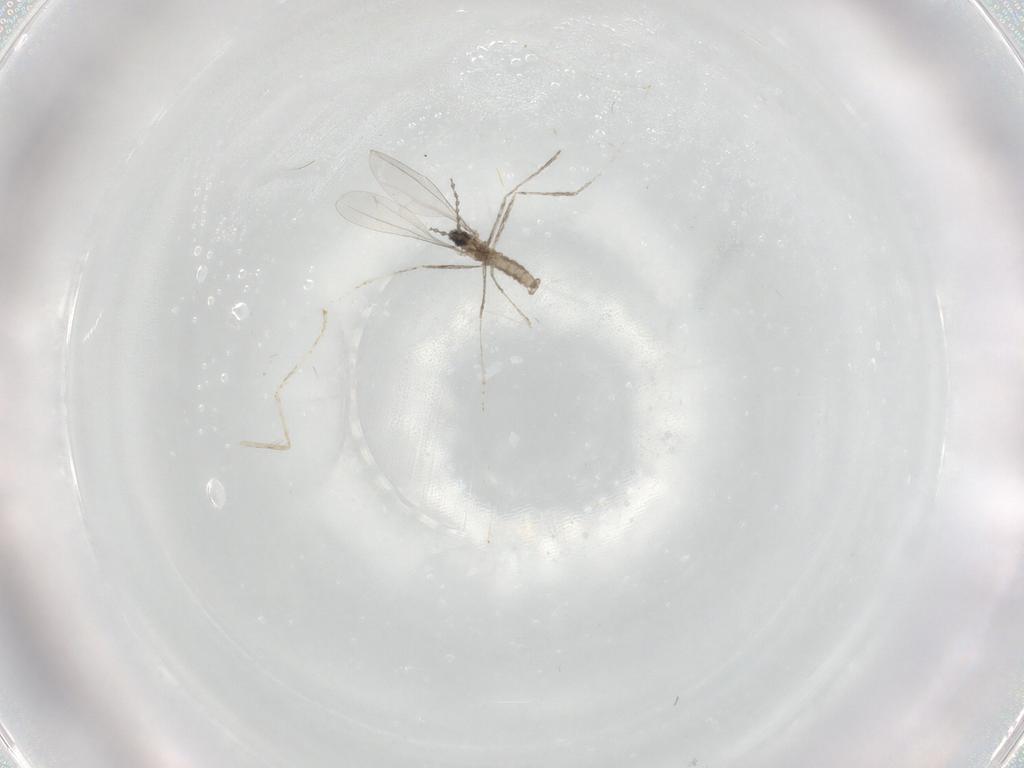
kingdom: Animalia
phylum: Arthropoda
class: Insecta
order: Diptera
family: Cecidomyiidae
